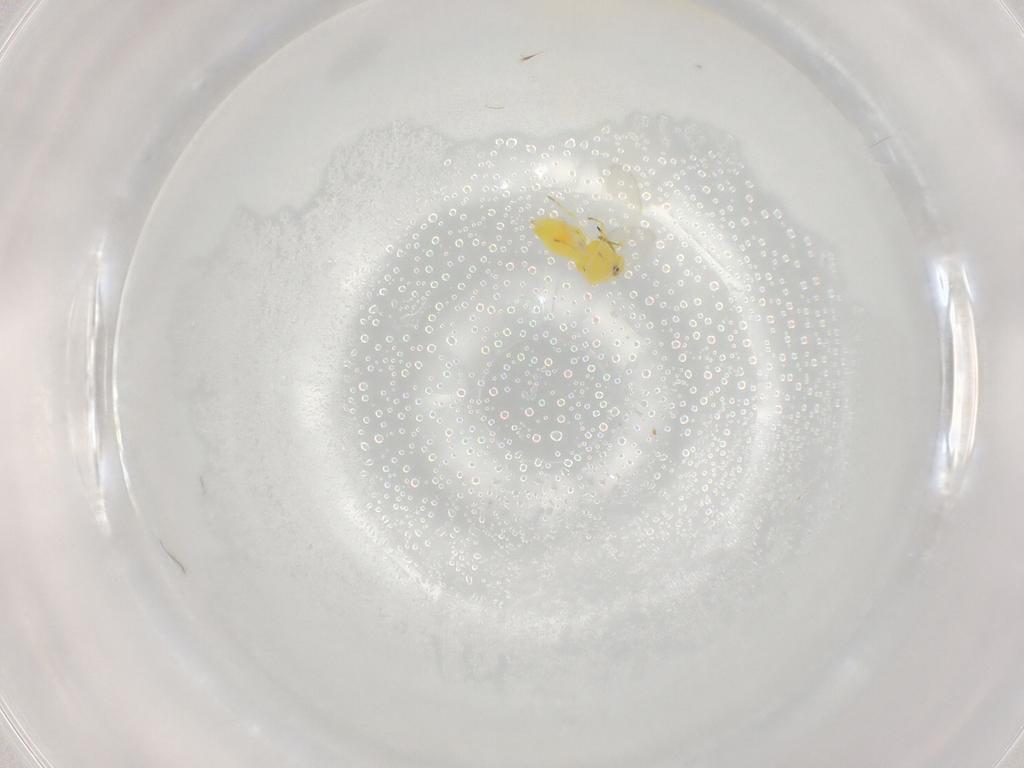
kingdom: Animalia
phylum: Arthropoda
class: Insecta
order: Hemiptera
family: Aleyrodidae
